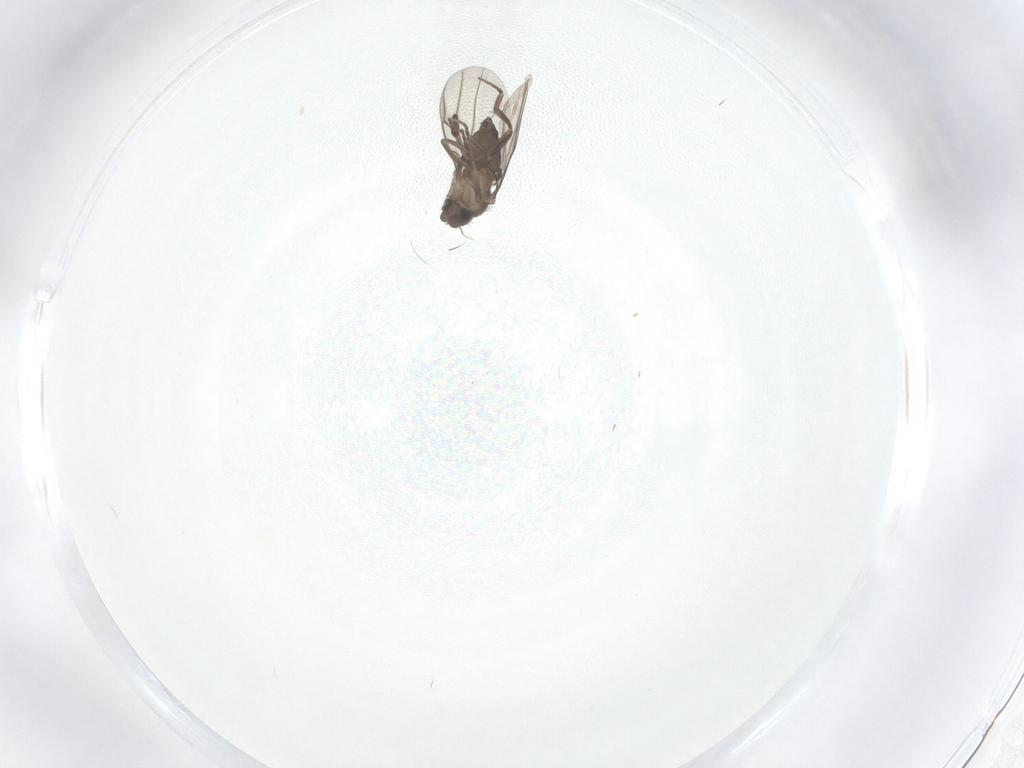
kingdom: Animalia
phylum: Arthropoda
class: Insecta
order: Diptera
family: Phoridae
